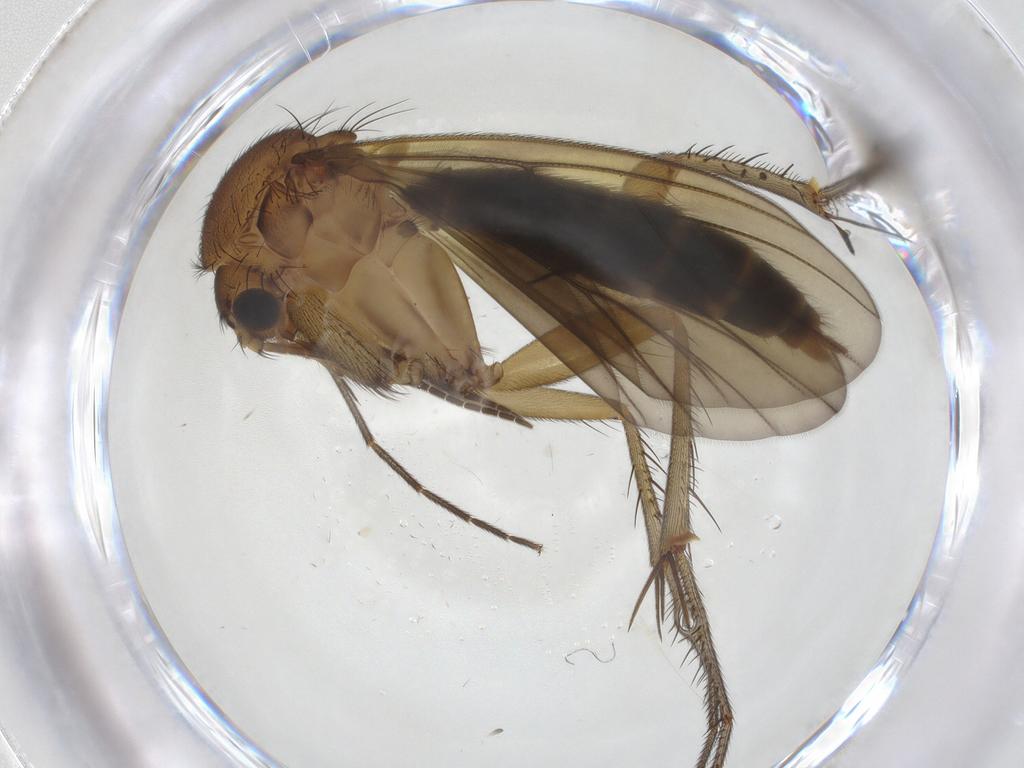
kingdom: Animalia
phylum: Arthropoda
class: Insecta
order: Diptera
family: Mycetophilidae
